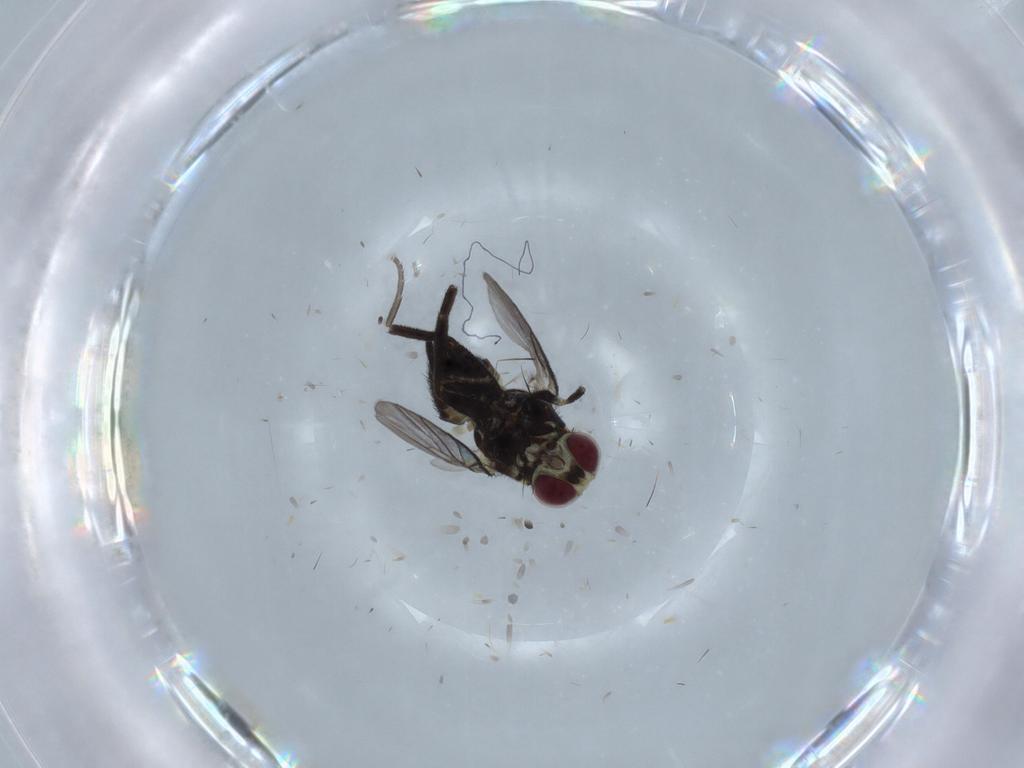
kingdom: Animalia
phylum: Arthropoda
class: Insecta
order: Diptera
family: Agromyzidae
